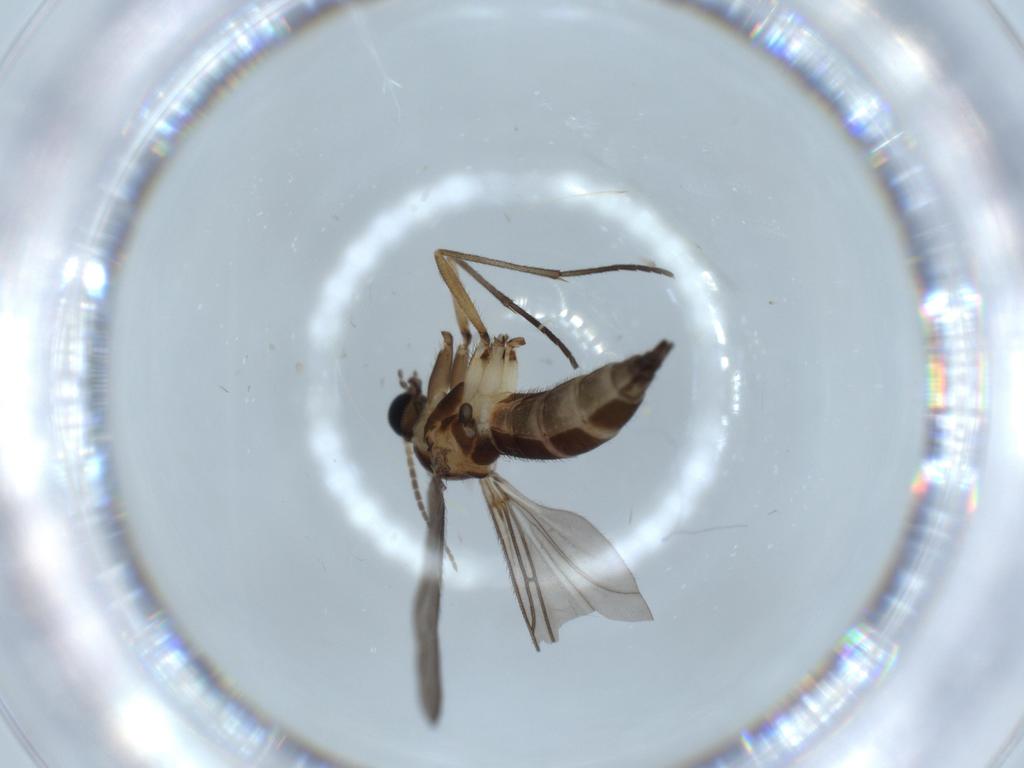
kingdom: Animalia
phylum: Arthropoda
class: Insecta
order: Diptera
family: Sciaridae
